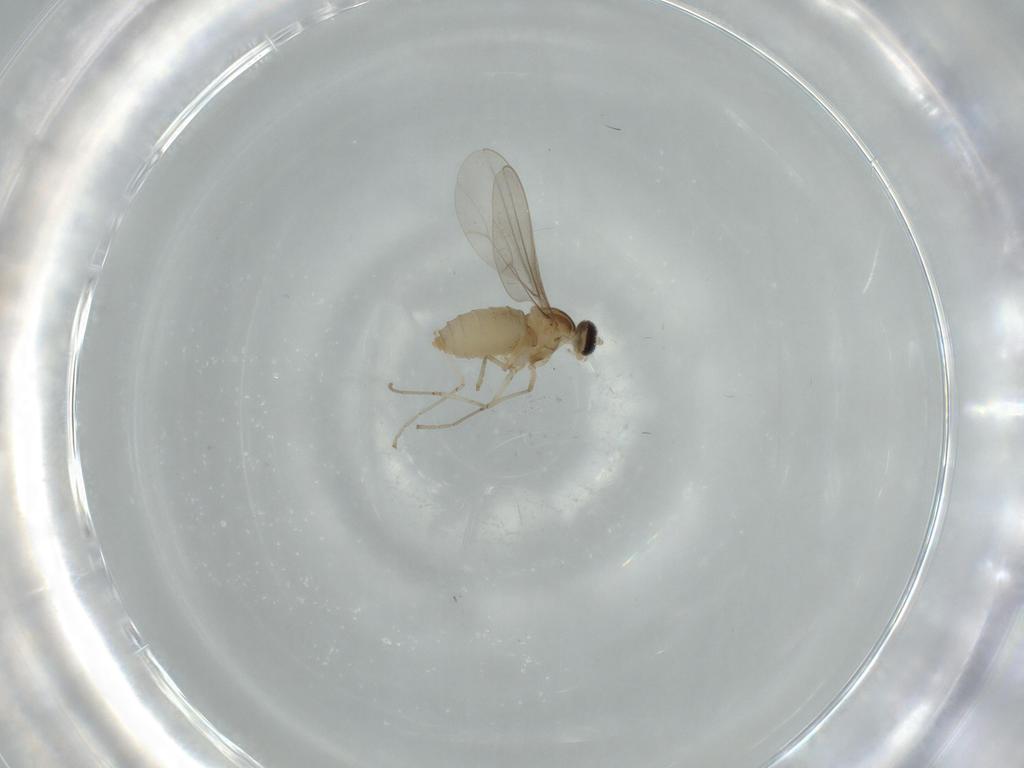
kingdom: Animalia
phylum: Arthropoda
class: Insecta
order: Diptera
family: Cecidomyiidae
